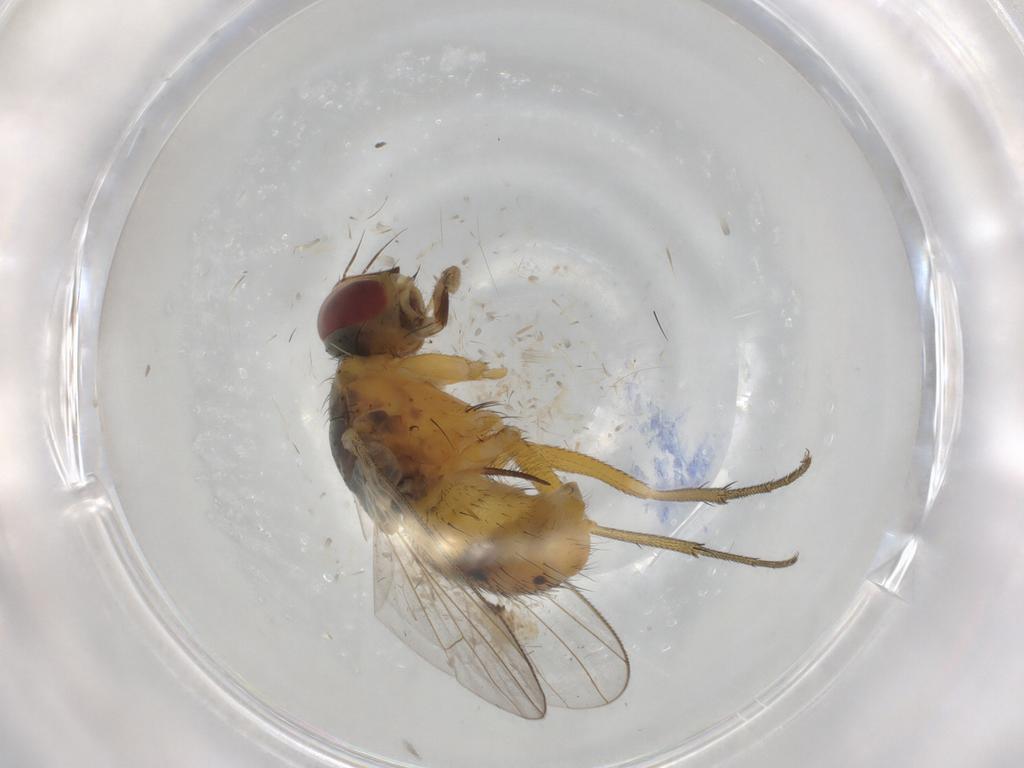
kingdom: Animalia
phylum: Arthropoda
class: Insecta
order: Diptera
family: Muscidae
